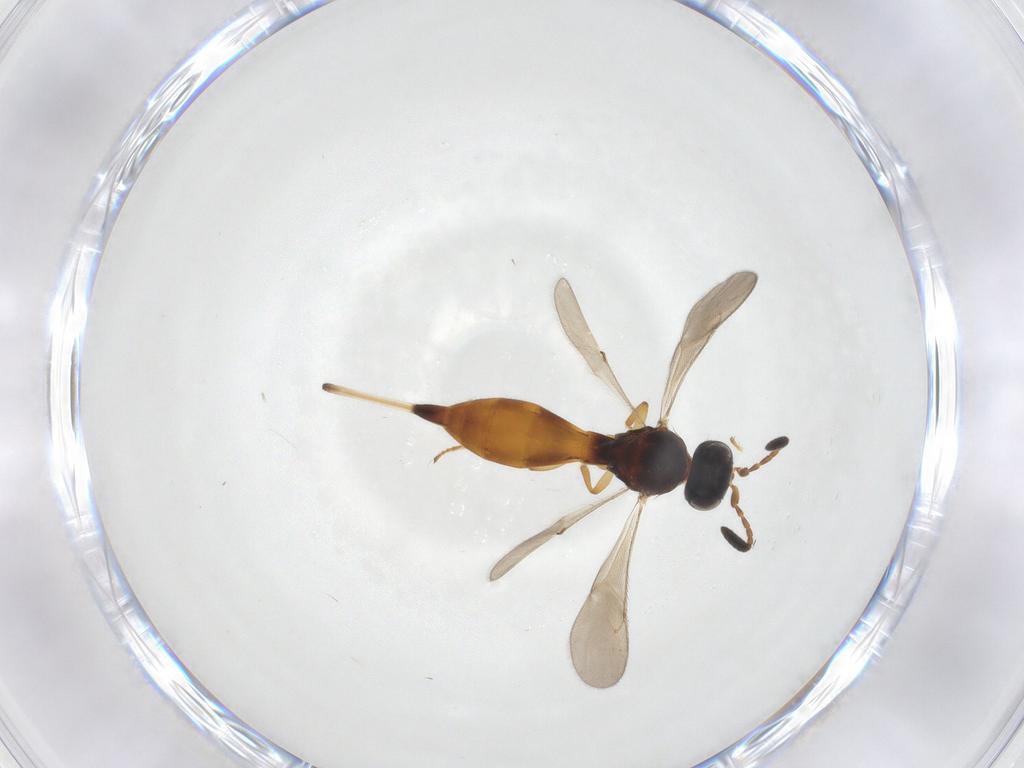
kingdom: Animalia
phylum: Arthropoda
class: Insecta
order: Hymenoptera
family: Scelionidae
